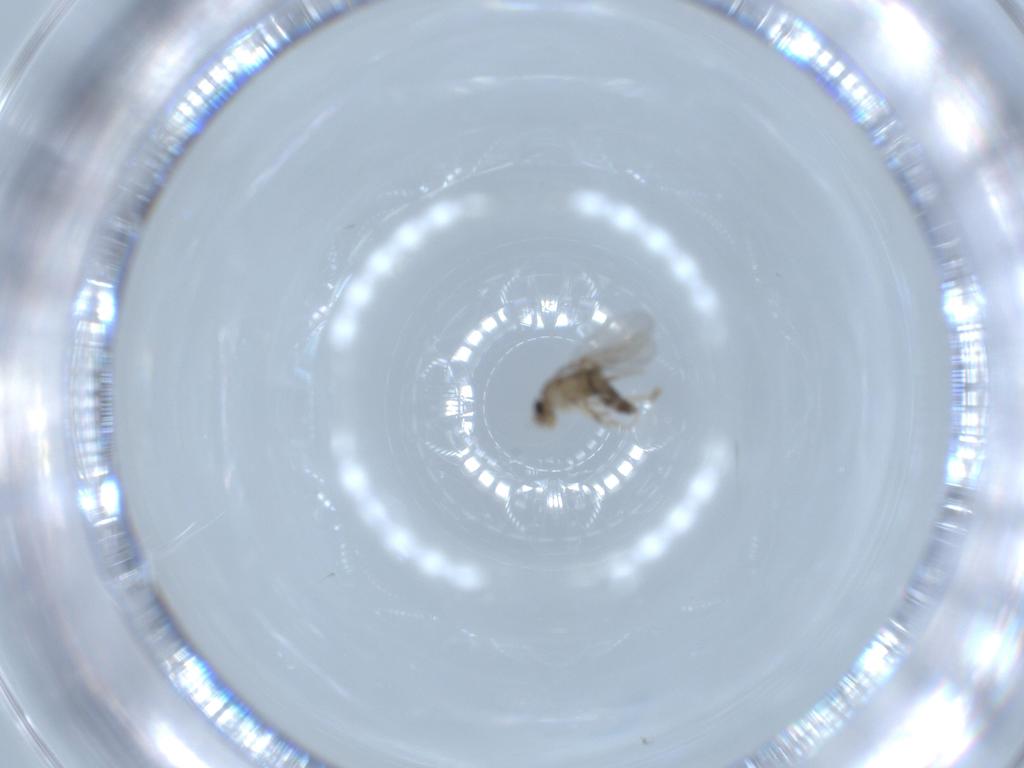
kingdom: Animalia
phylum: Arthropoda
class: Insecta
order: Diptera
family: Phoridae
